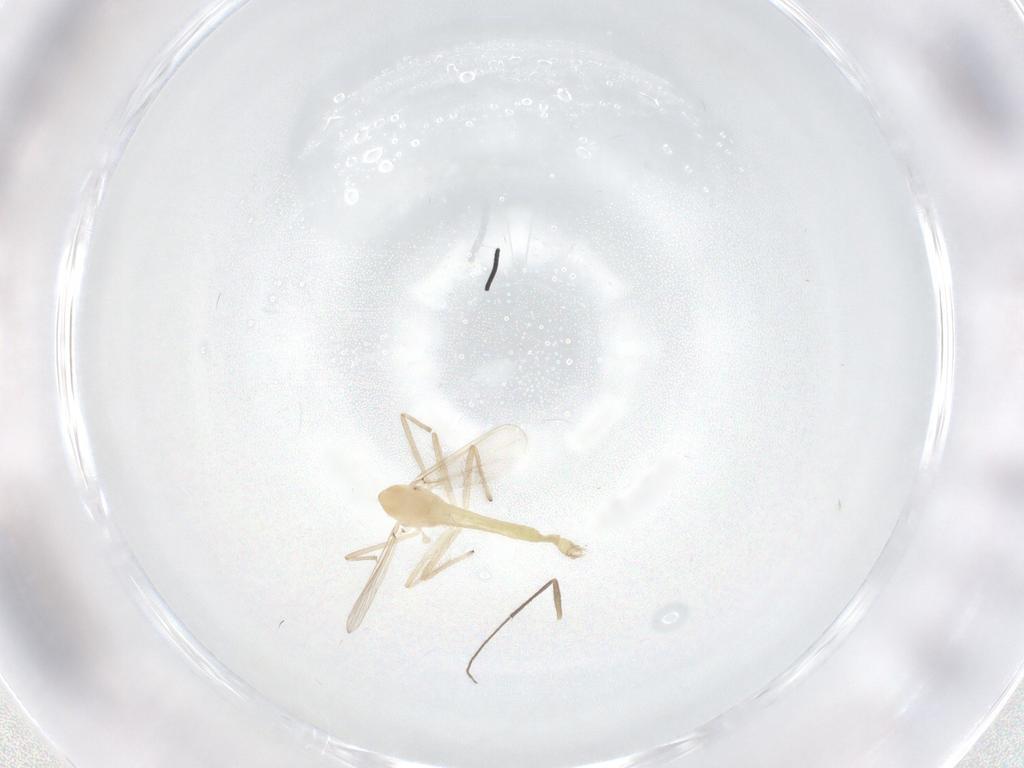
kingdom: Animalia
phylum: Arthropoda
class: Insecta
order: Diptera
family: Chironomidae
